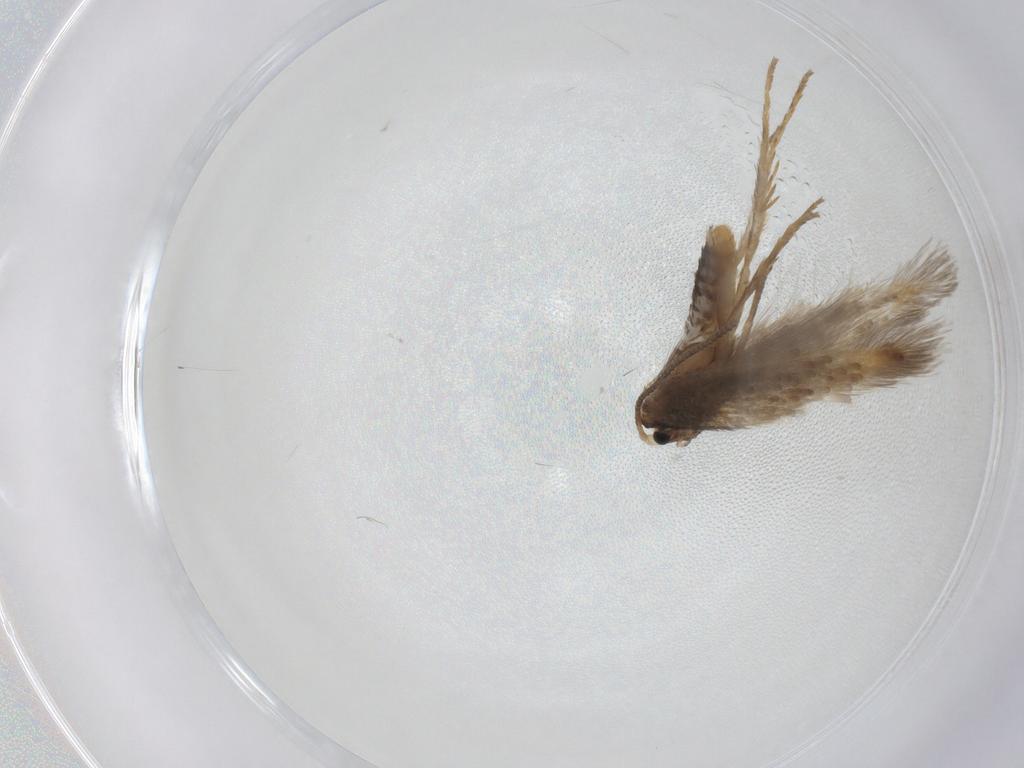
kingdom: Animalia
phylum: Arthropoda
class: Insecta
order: Lepidoptera
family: Nepticulidae
